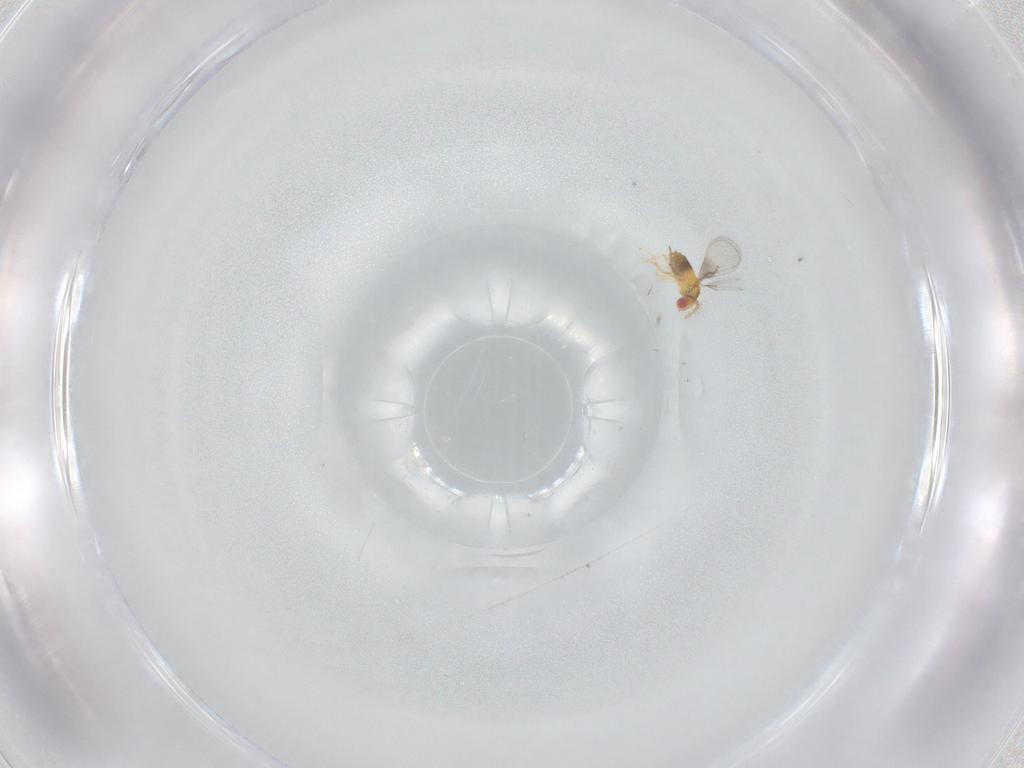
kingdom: Animalia
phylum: Arthropoda
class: Insecta
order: Hymenoptera
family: Trichogrammatidae
